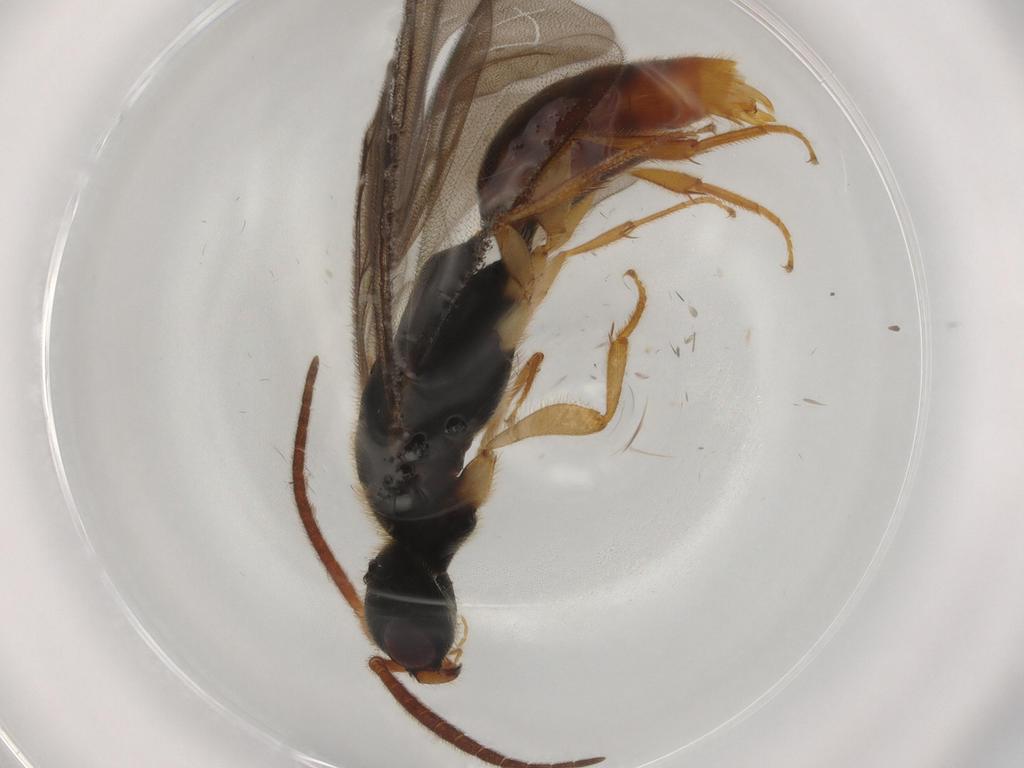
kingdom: Animalia
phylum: Arthropoda
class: Insecta
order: Hymenoptera
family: Bethylidae
